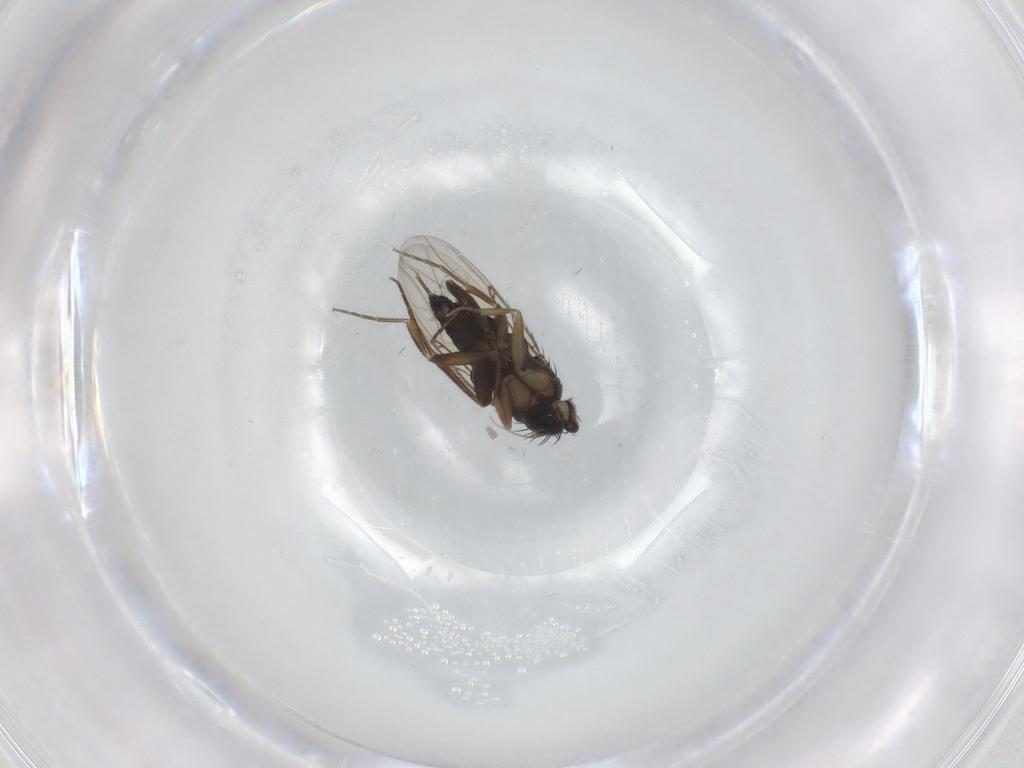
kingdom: Animalia
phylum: Arthropoda
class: Insecta
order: Diptera
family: Phoridae
